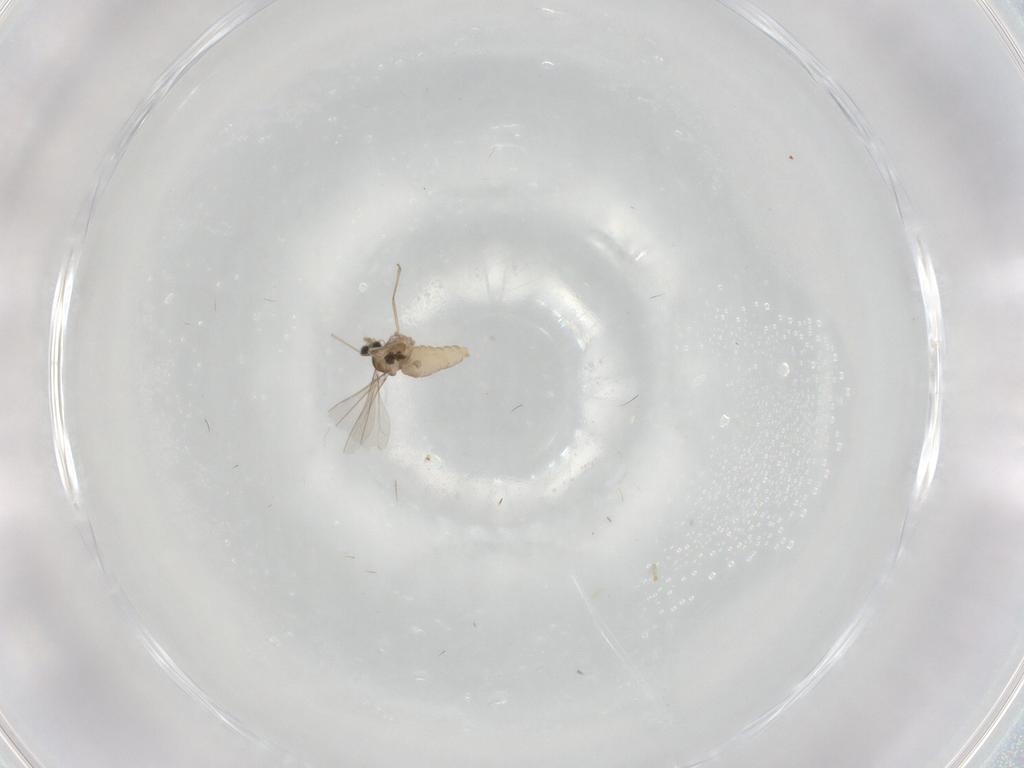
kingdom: Animalia
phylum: Arthropoda
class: Insecta
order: Diptera
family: Cecidomyiidae
